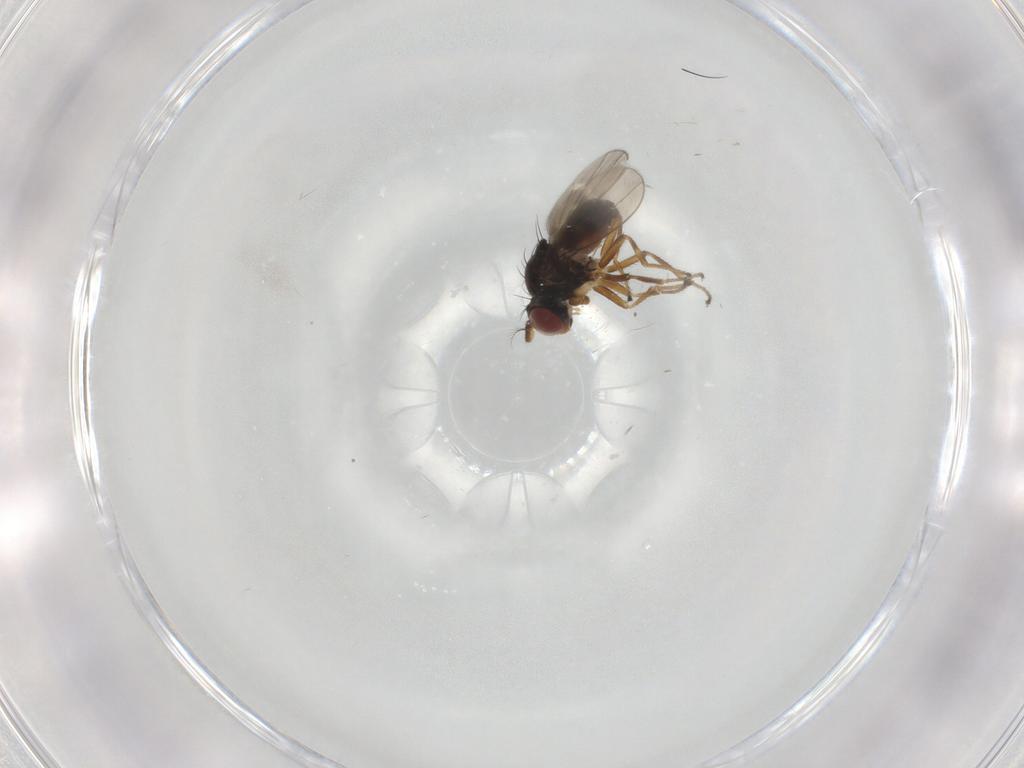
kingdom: Animalia
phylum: Arthropoda
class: Insecta
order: Diptera
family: Ephydridae
